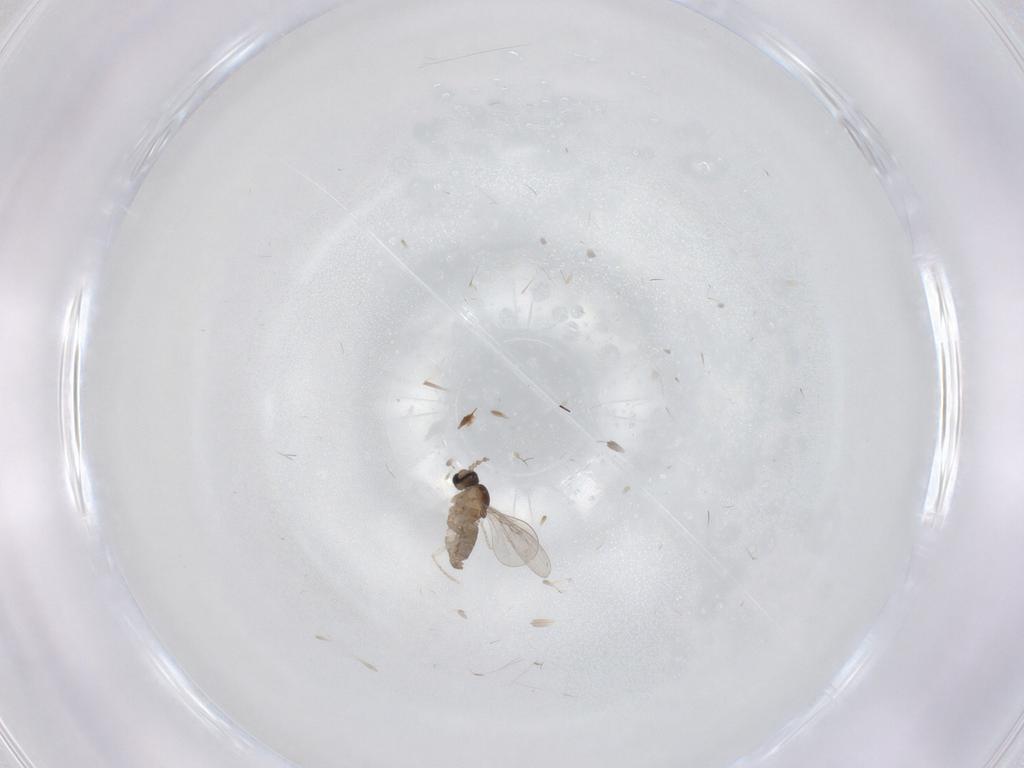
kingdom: Animalia
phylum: Arthropoda
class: Insecta
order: Diptera
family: Cecidomyiidae
